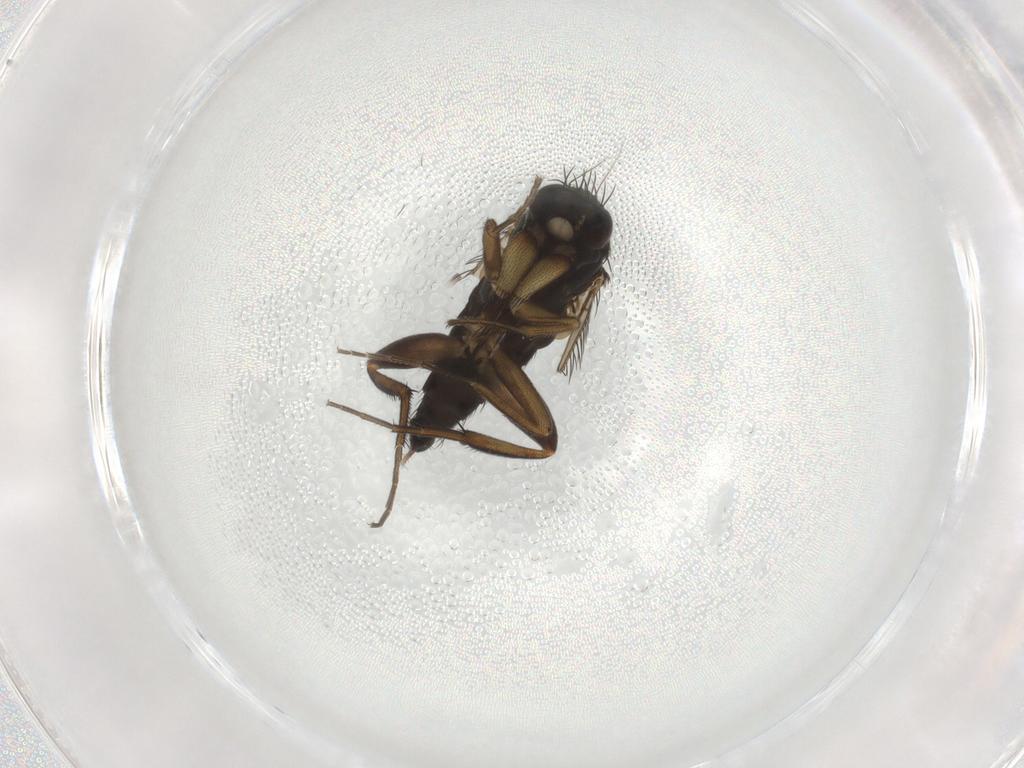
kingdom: Animalia
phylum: Arthropoda
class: Insecta
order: Diptera
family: Phoridae
